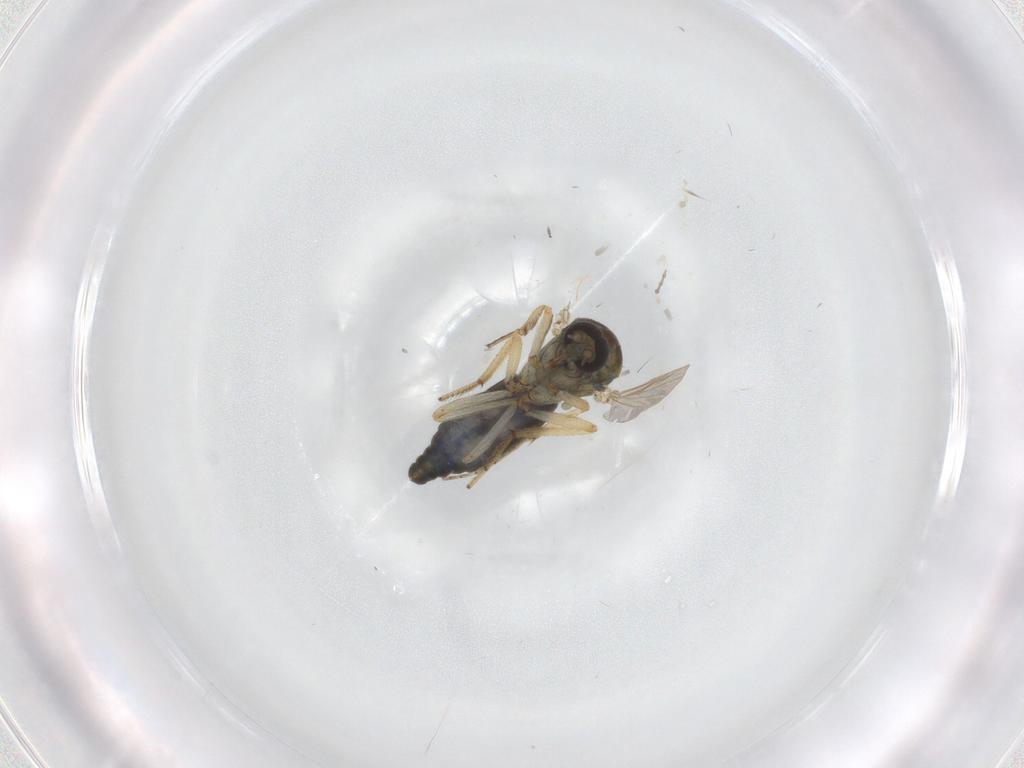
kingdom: Animalia
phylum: Arthropoda
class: Insecta
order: Diptera
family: Ceratopogonidae
